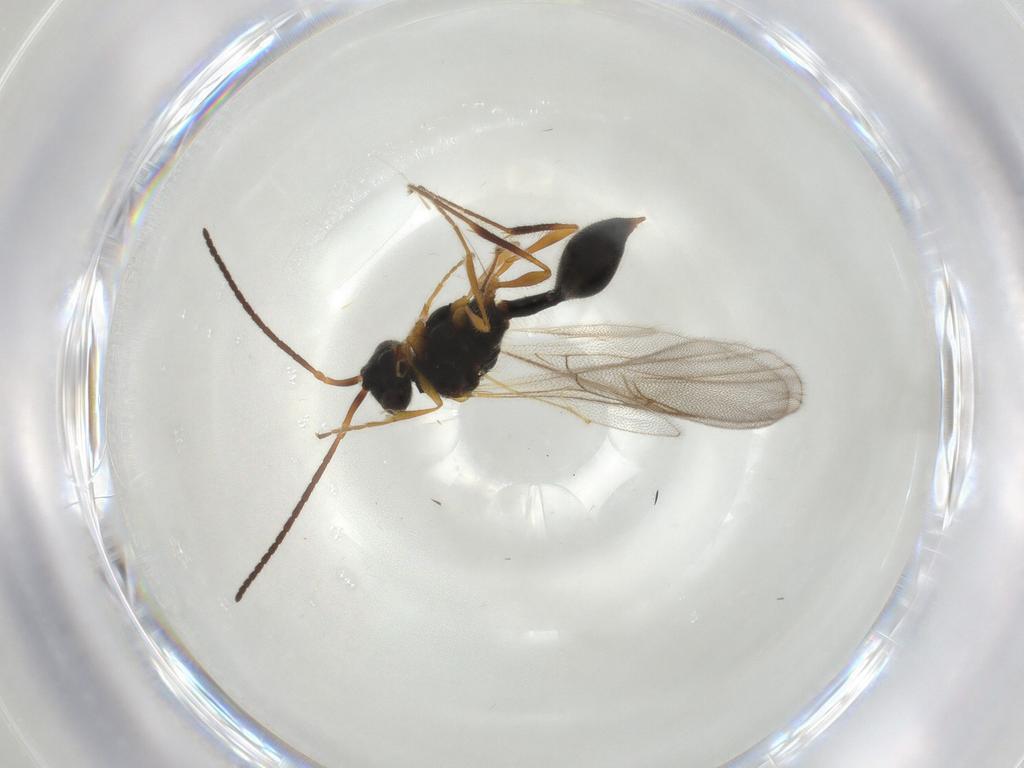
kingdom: Animalia
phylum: Arthropoda
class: Insecta
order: Hymenoptera
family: Diapriidae
